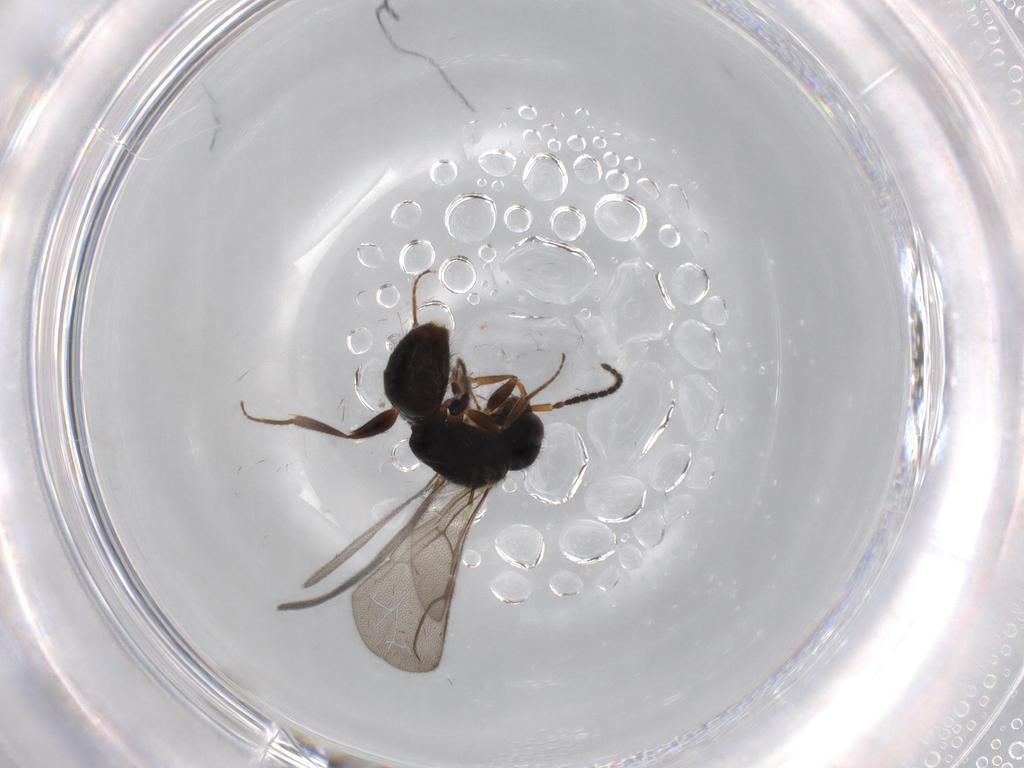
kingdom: Animalia
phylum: Arthropoda
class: Insecta
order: Hymenoptera
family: Bethylidae
